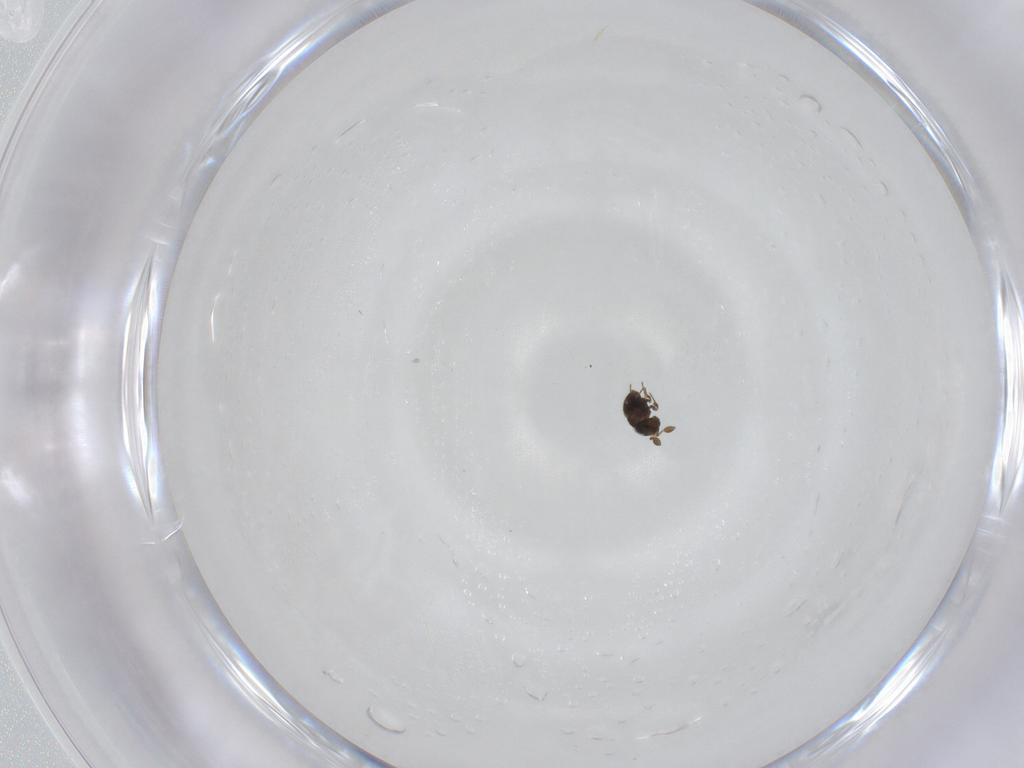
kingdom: Animalia
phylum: Arthropoda
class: Insecta
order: Hymenoptera
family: Scelionidae
